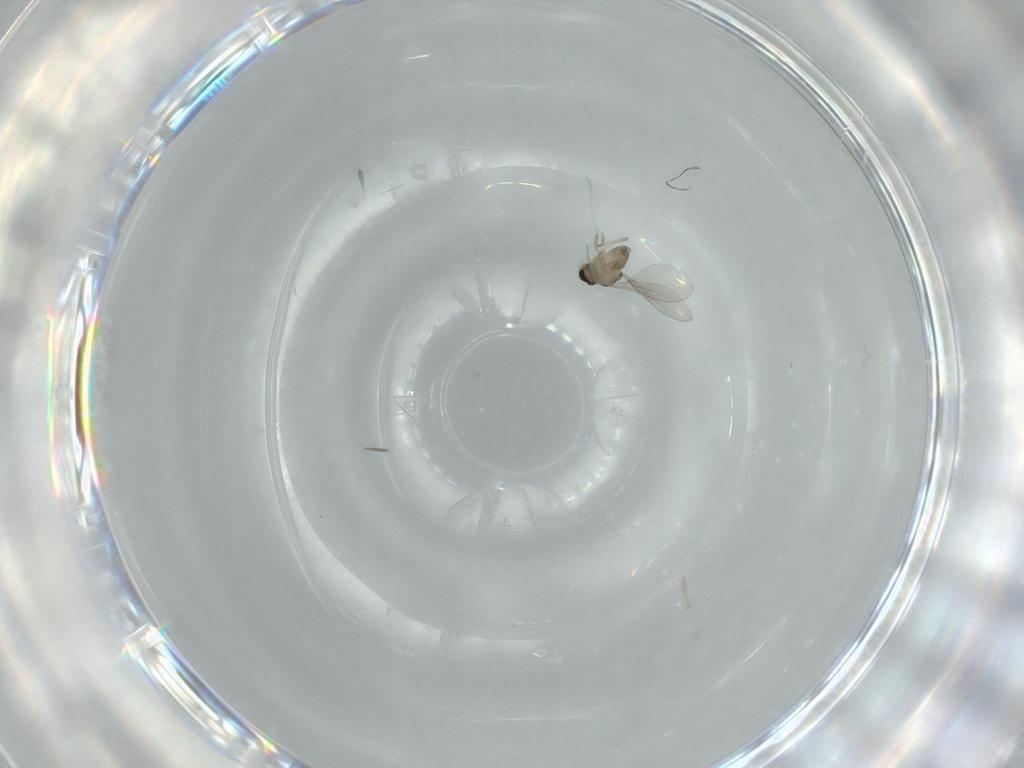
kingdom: Animalia
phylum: Arthropoda
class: Insecta
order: Diptera
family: Psychodidae
